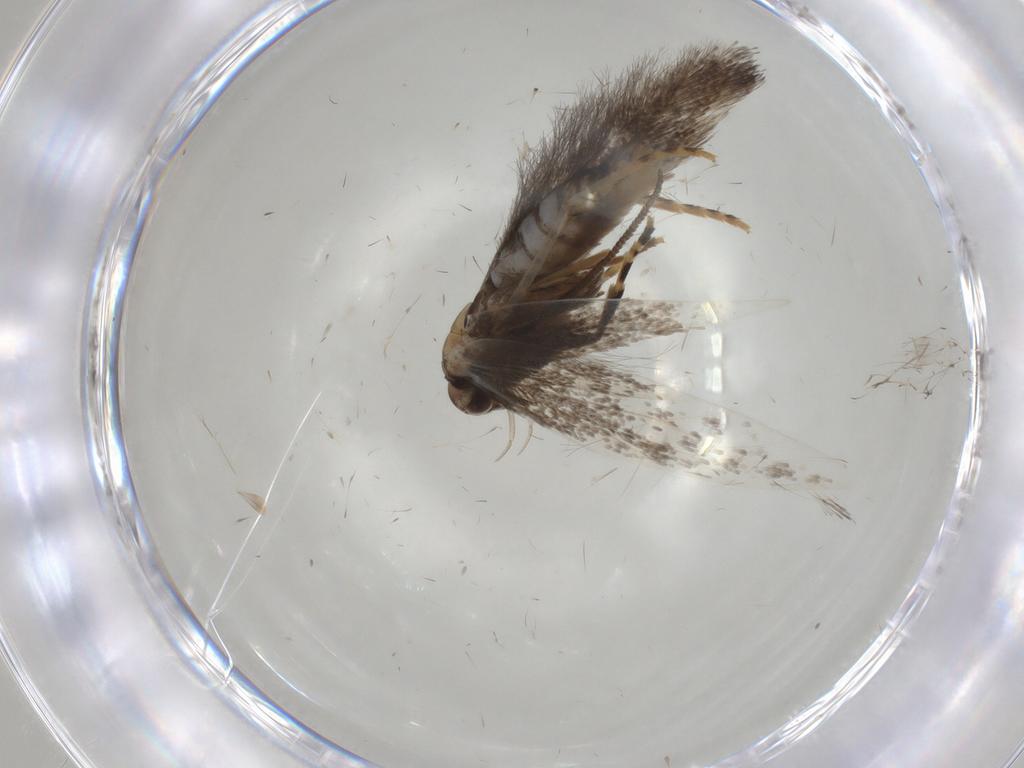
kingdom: Animalia
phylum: Arthropoda
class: Insecta
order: Lepidoptera
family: Elachistidae
